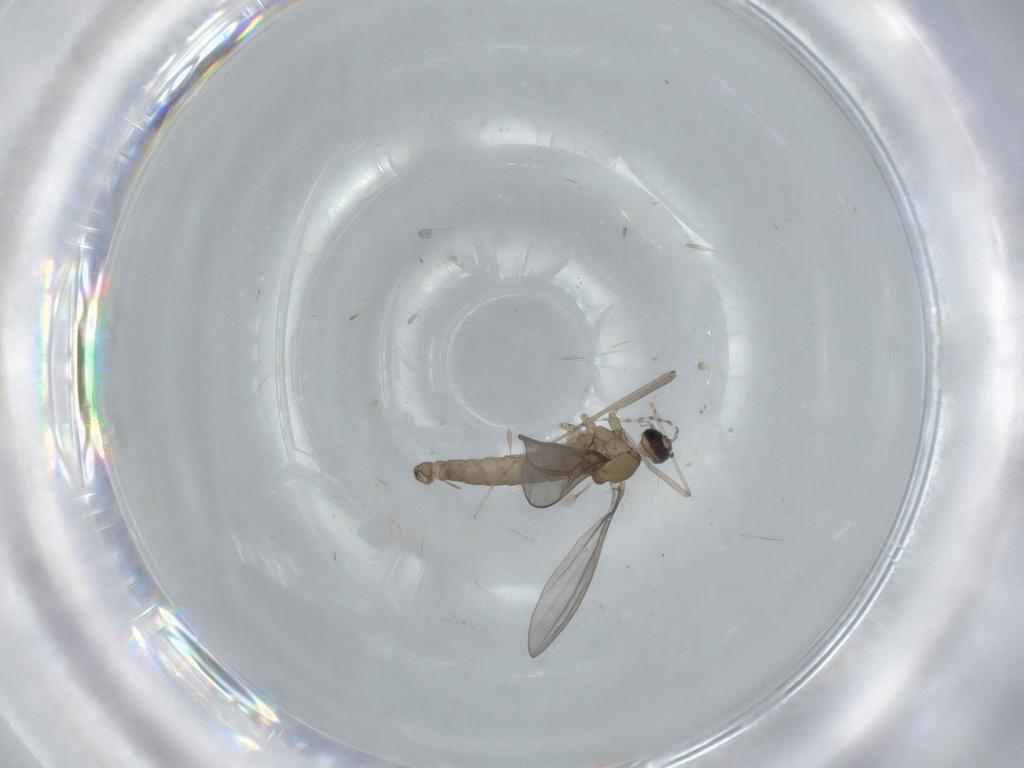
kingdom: Animalia
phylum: Arthropoda
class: Insecta
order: Diptera
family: Cecidomyiidae
